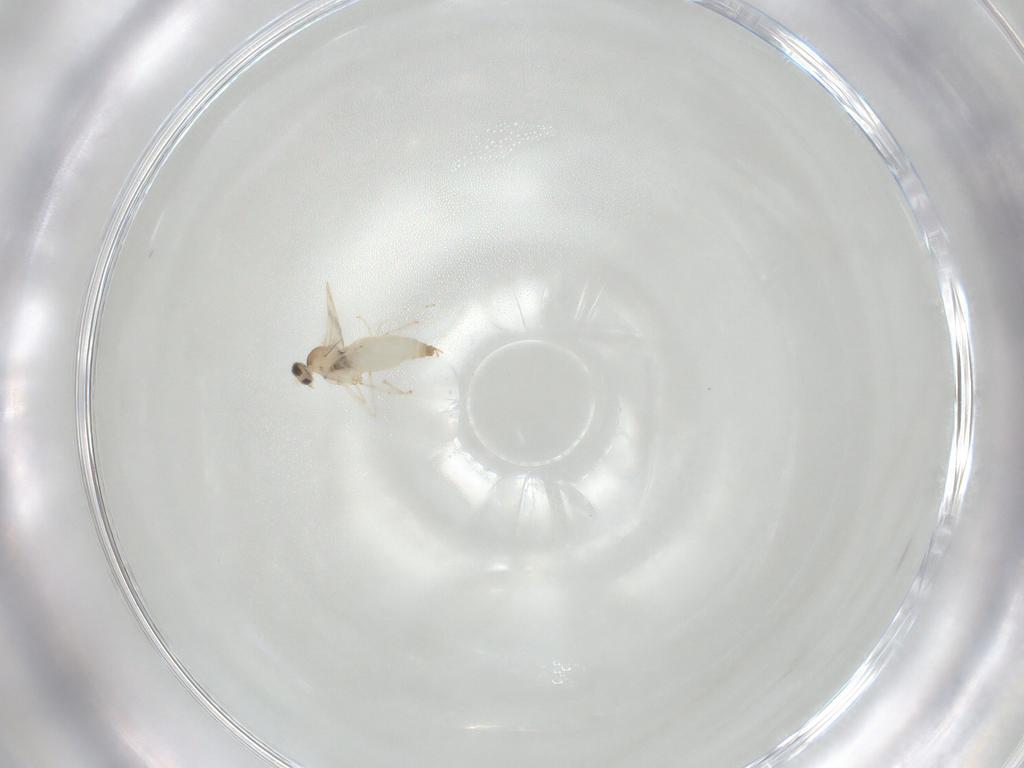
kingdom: Animalia
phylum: Arthropoda
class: Insecta
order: Diptera
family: Cecidomyiidae
